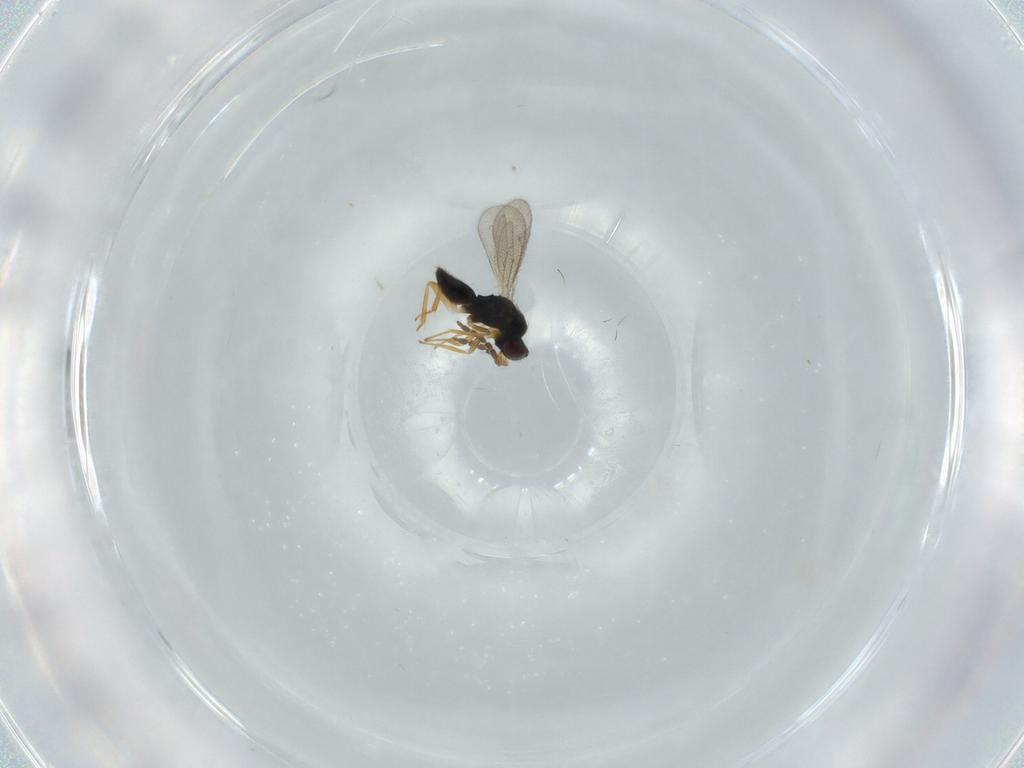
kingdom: Animalia
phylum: Arthropoda
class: Insecta
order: Hymenoptera
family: Eulophidae
